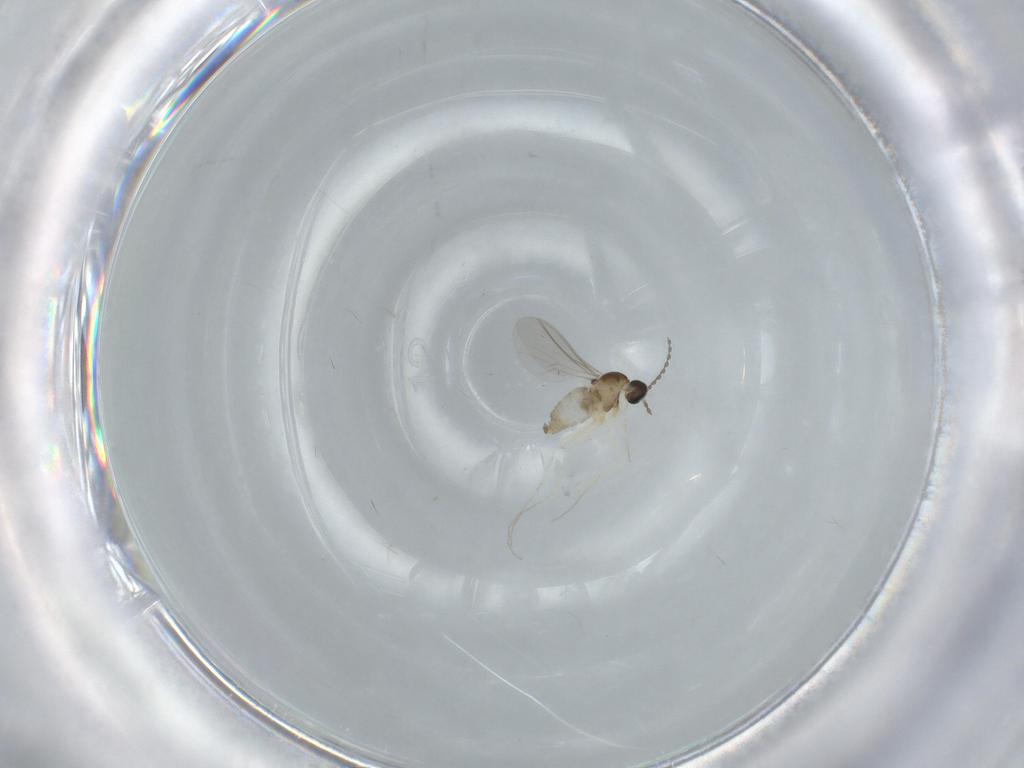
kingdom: Animalia
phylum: Arthropoda
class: Insecta
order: Diptera
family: Cecidomyiidae
